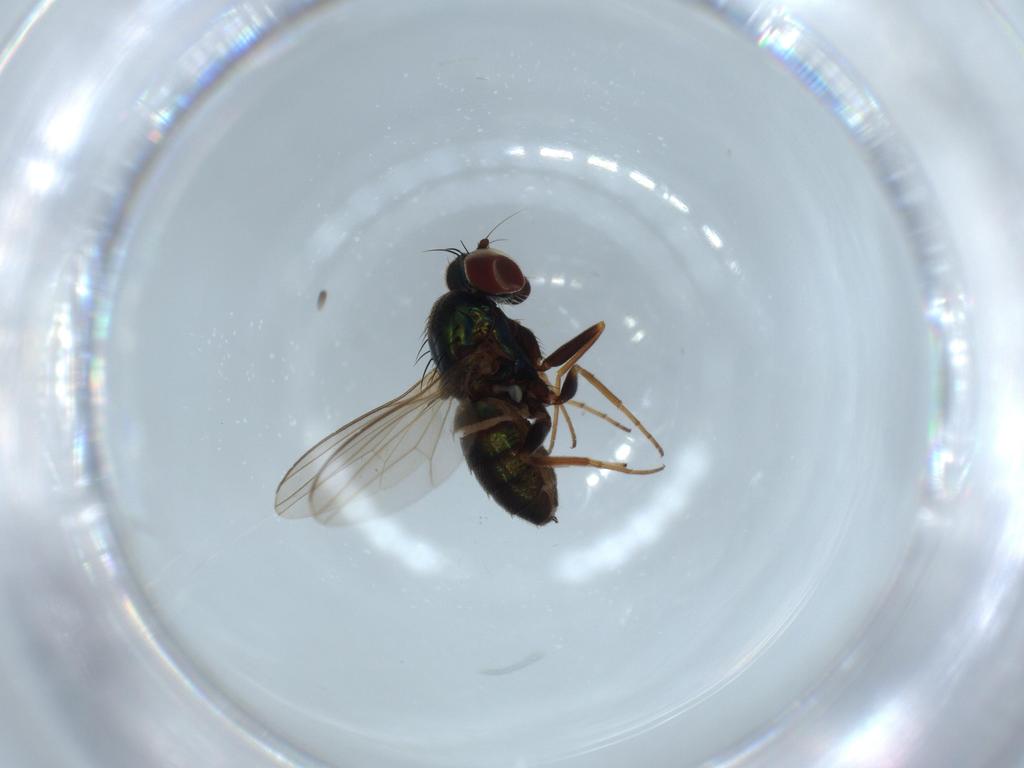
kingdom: Animalia
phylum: Arthropoda
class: Insecta
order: Diptera
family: Dolichopodidae
